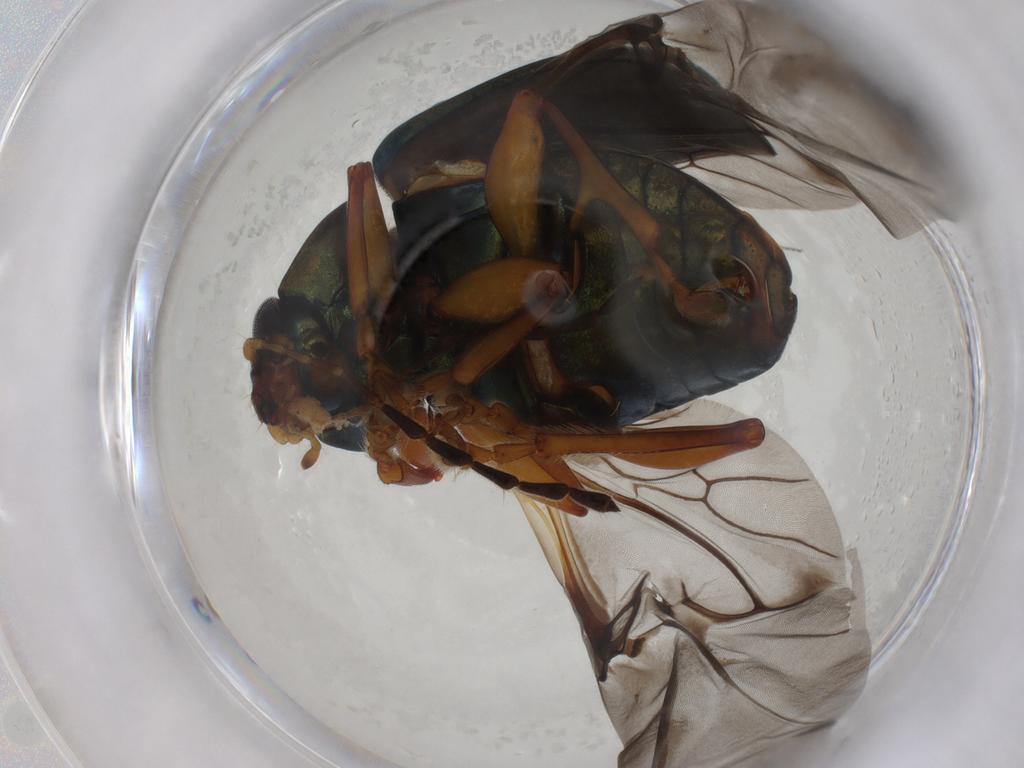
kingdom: Animalia
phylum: Arthropoda
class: Insecta
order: Coleoptera
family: Chrysomelidae
